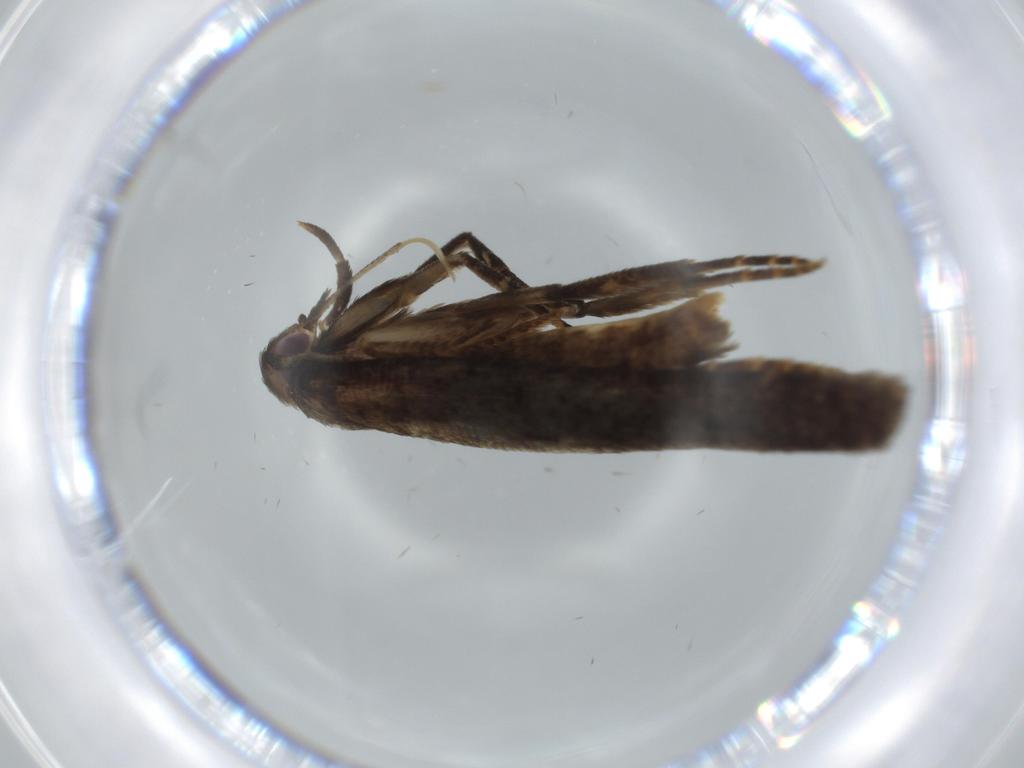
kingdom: Animalia
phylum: Arthropoda
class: Insecta
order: Lepidoptera
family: Autostichidae
